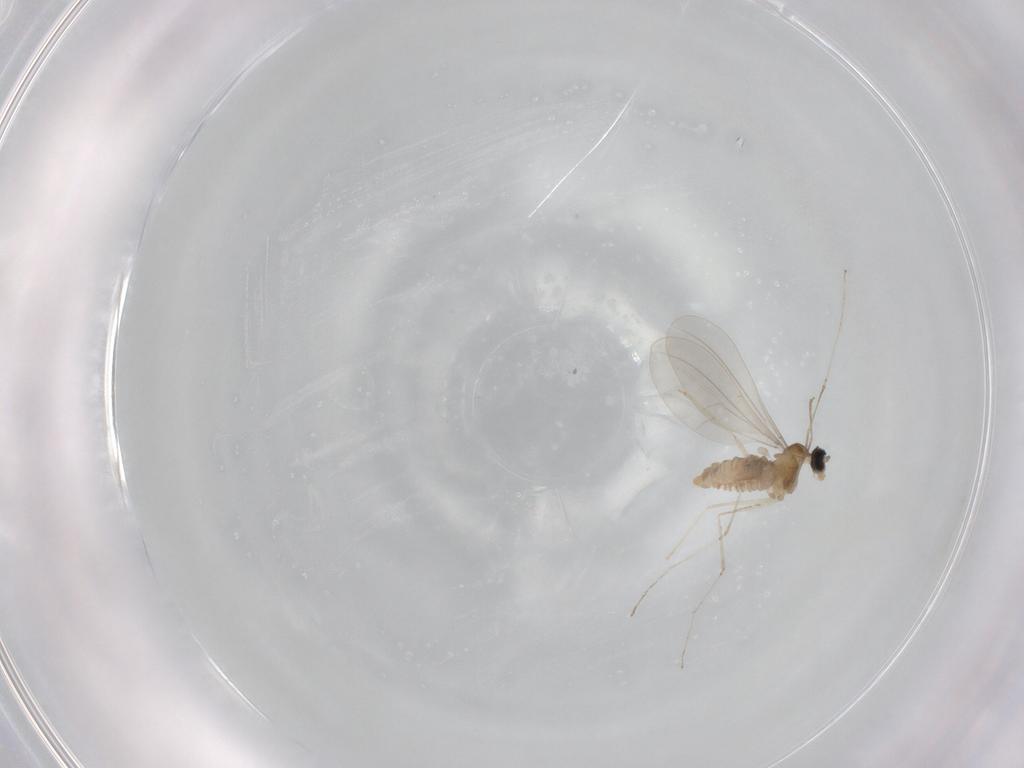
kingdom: Animalia
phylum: Arthropoda
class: Insecta
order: Diptera
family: Cecidomyiidae
